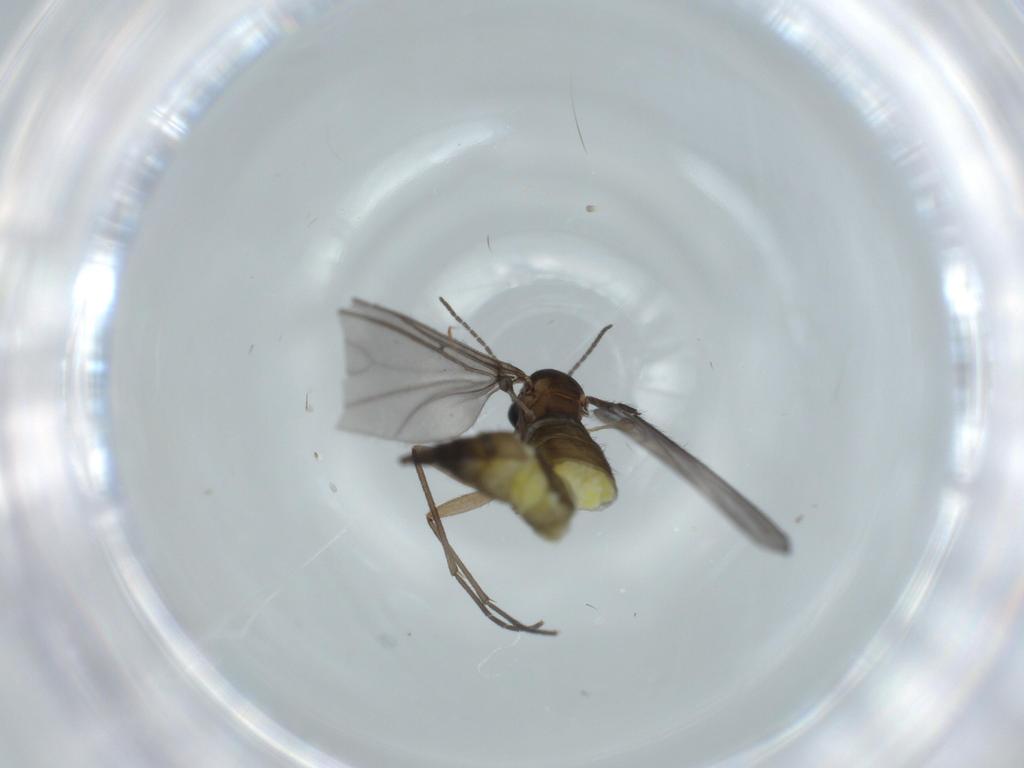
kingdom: Animalia
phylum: Arthropoda
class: Insecta
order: Diptera
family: Sciaridae
